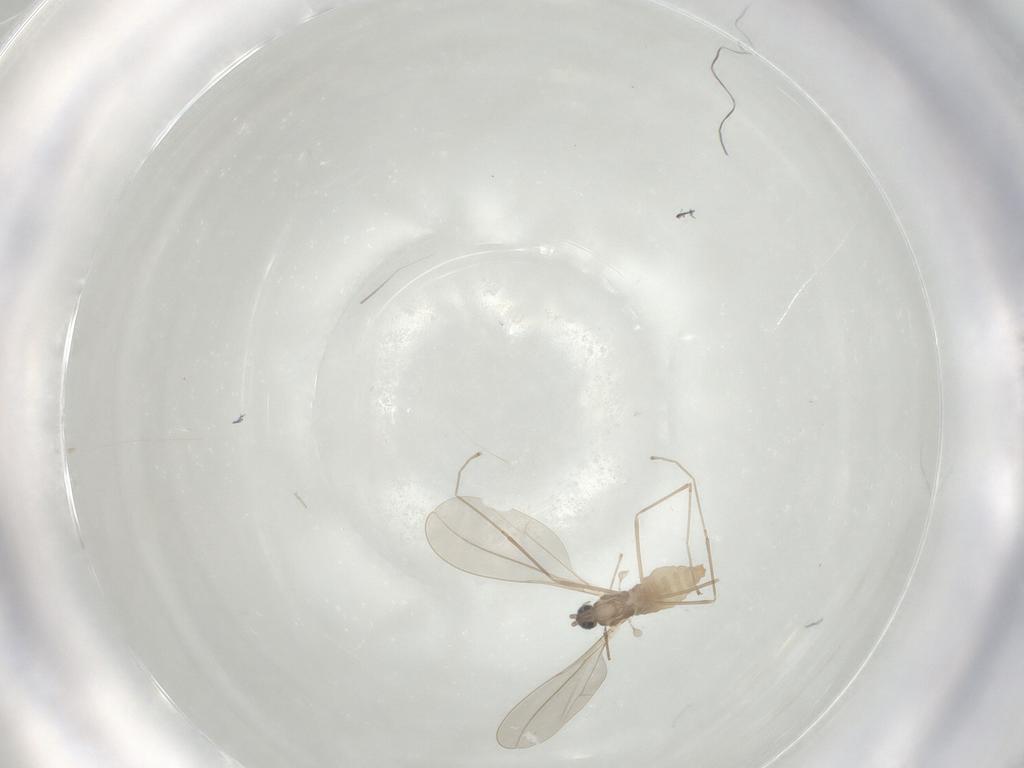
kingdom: Animalia
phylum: Arthropoda
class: Insecta
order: Diptera
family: Cecidomyiidae
